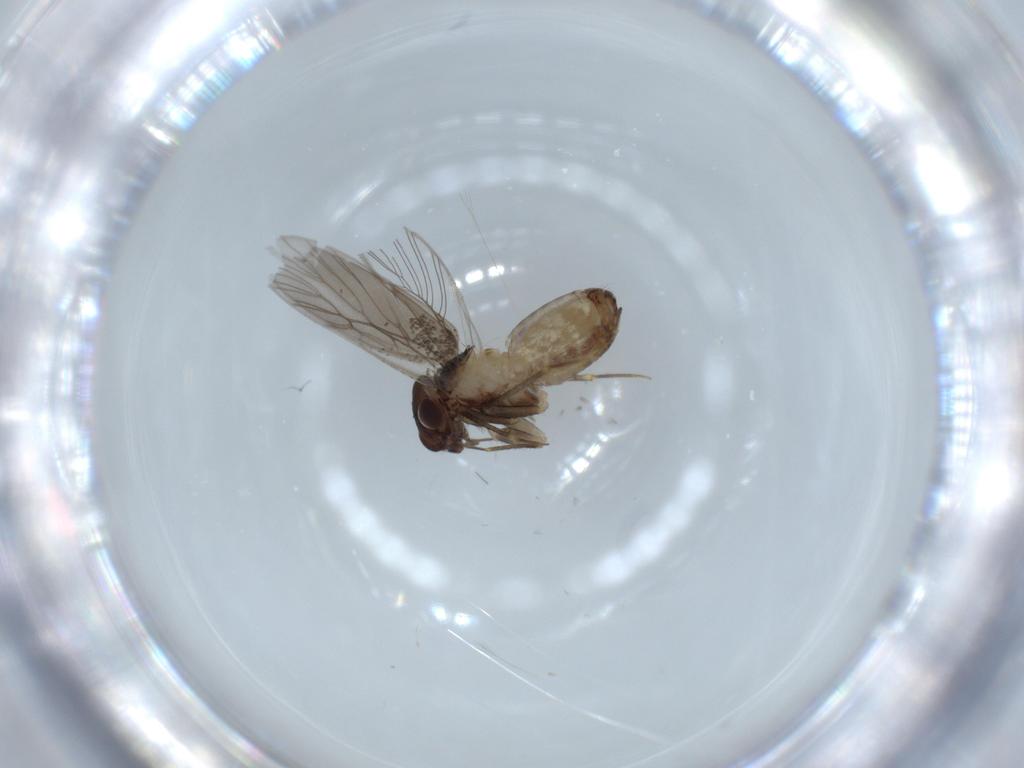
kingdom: Animalia
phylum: Arthropoda
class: Insecta
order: Psocodea
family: Lepidopsocidae
